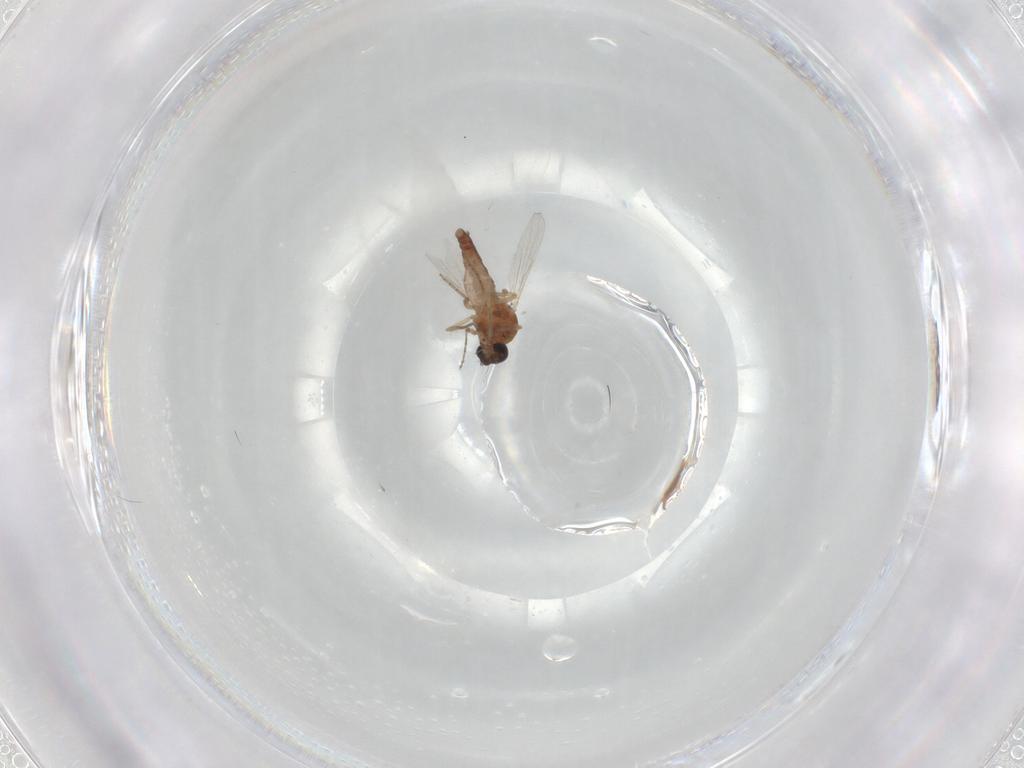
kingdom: Animalia
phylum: Arthropoda
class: Insecta
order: Diptera
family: Ceratopogonidae
